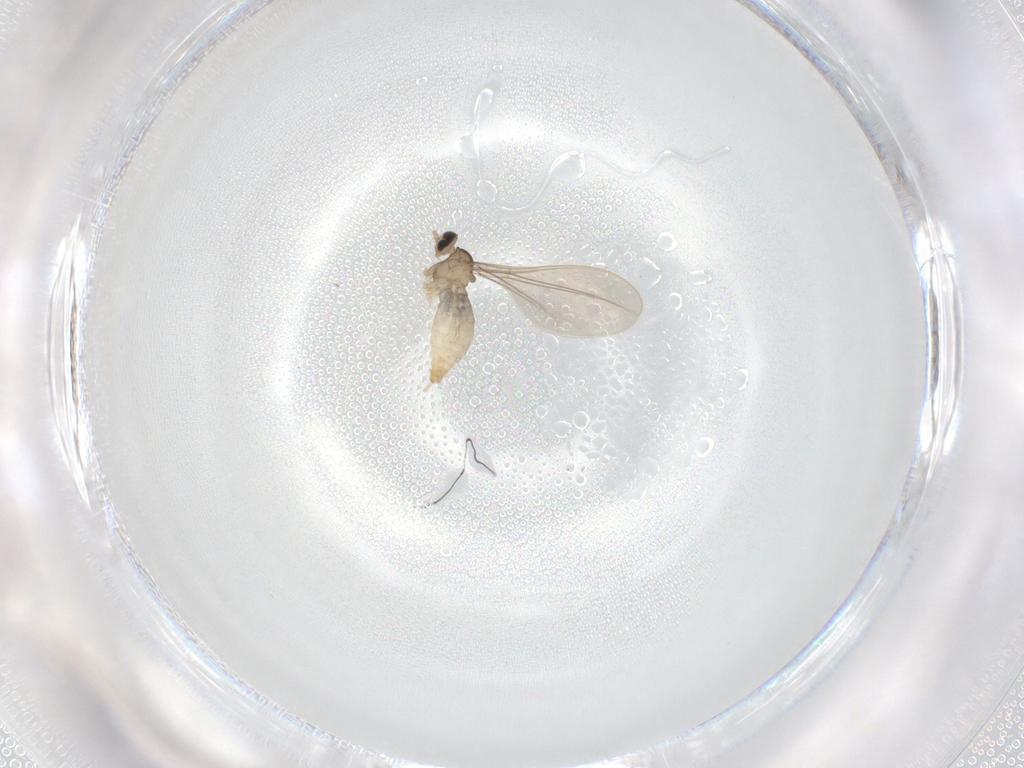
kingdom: Animalia
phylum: Arthropoda
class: Insecta
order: Diptera
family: Cecidomyiidae
